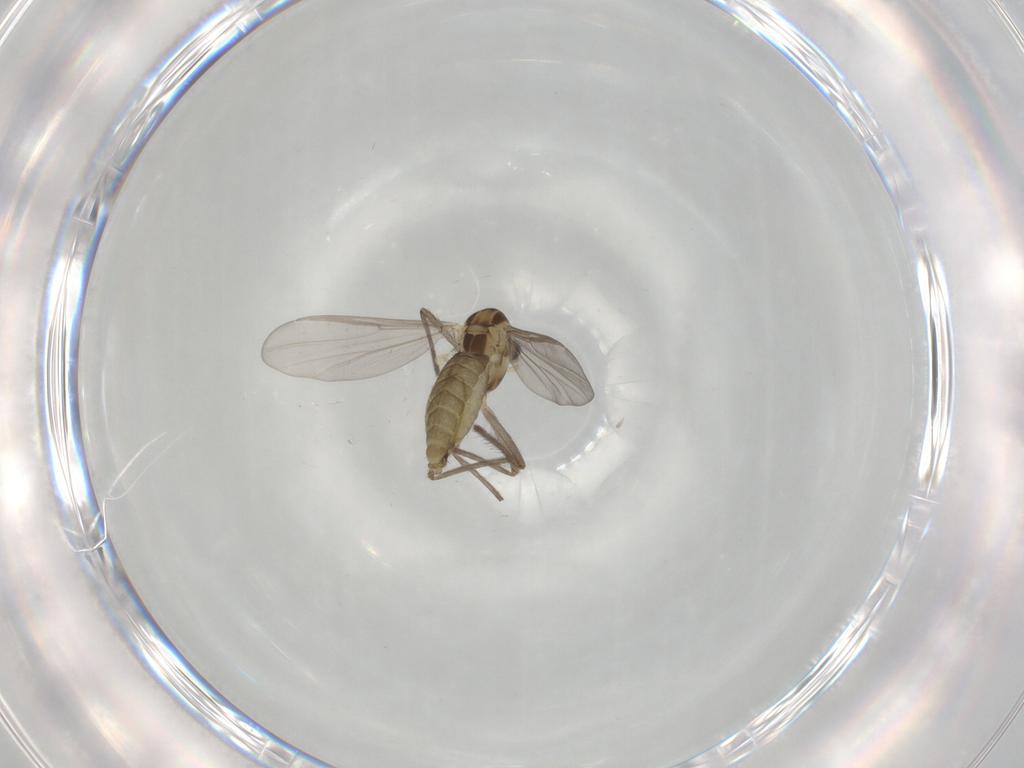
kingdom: Animalia
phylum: Arthropoda
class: Insecta
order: Diptera
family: Chironomidae
